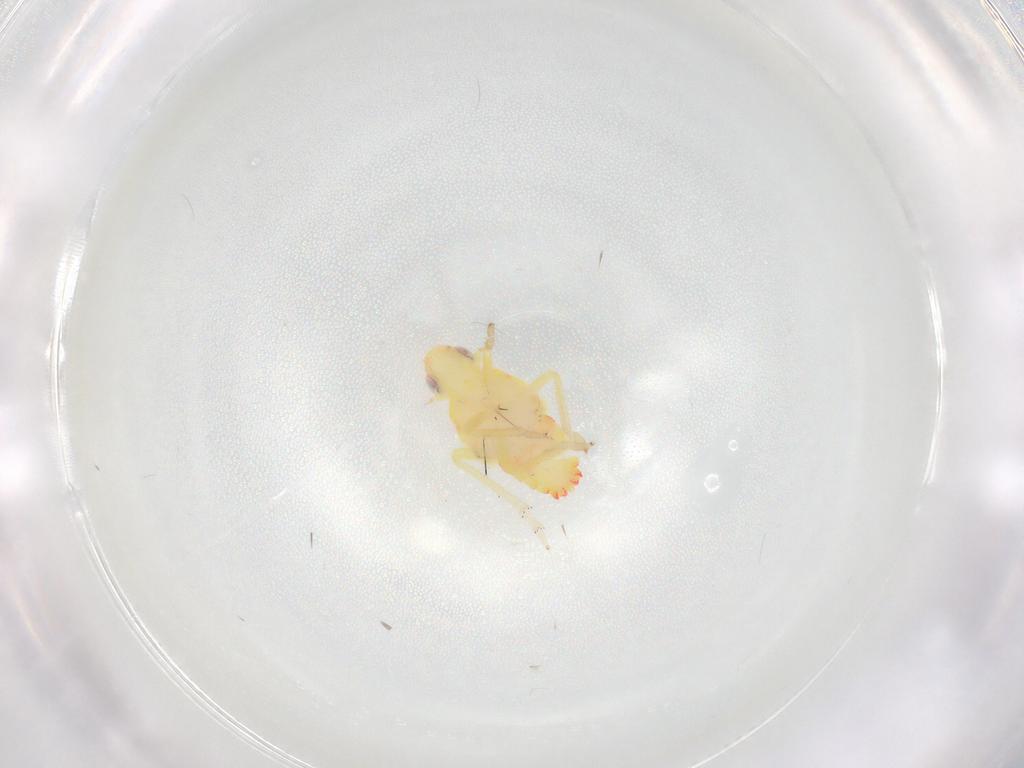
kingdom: Animalia
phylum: Arthropoda
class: Insecta
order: Hemiptera
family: Tropiduchidae
